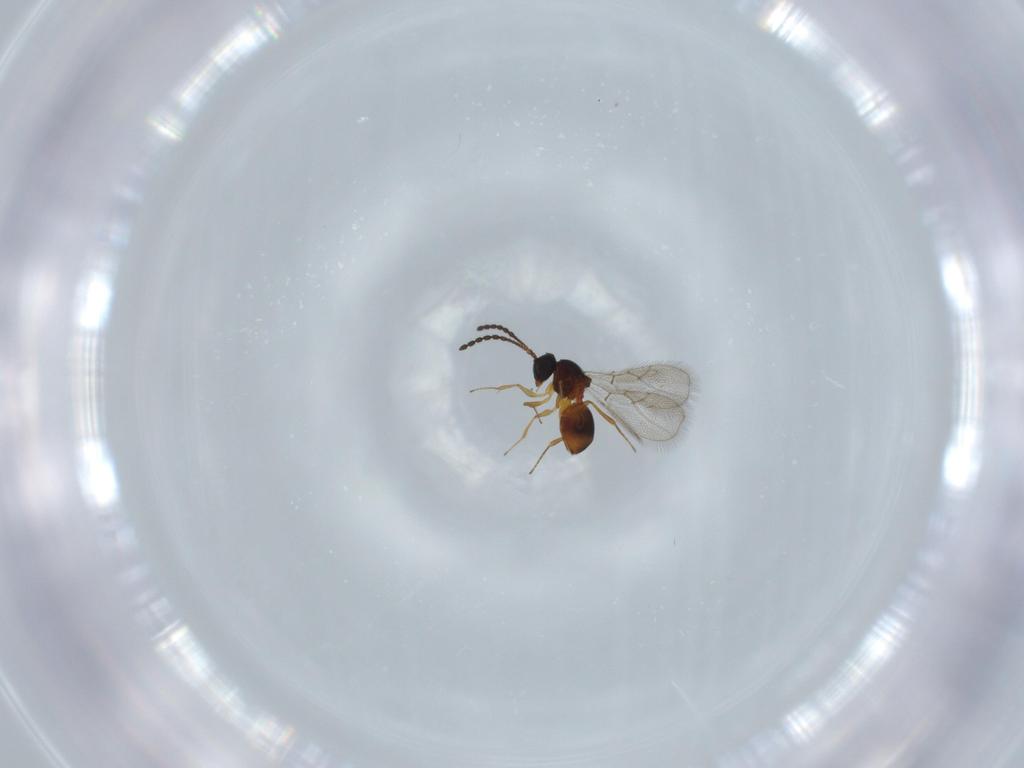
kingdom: Animalia
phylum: Arthropoda
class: Insecta
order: Hymenoptera
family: Figitidae
